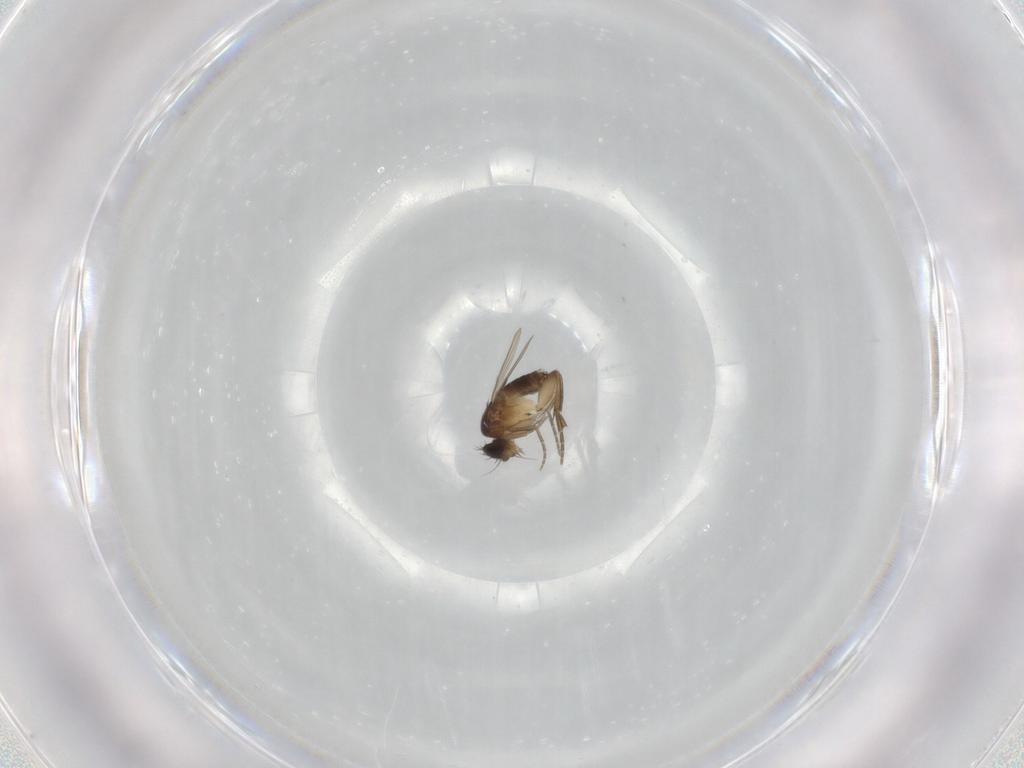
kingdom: Animalia
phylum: Arthropoda
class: Insecta
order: Diptera
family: Phoridae
